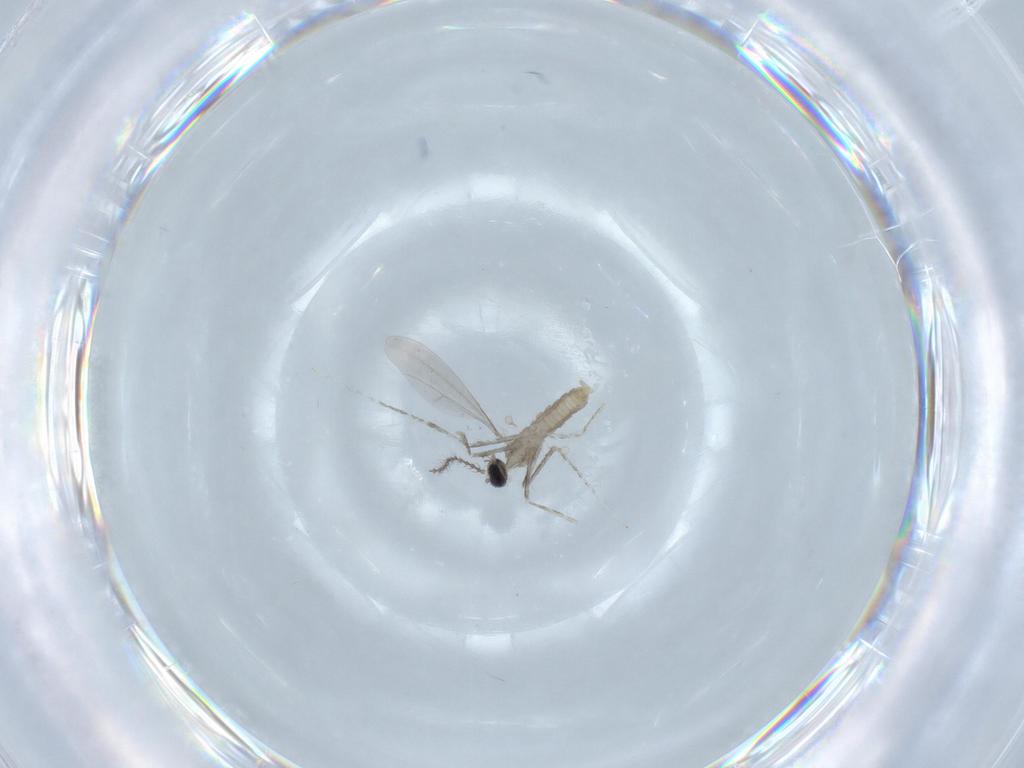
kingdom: Animalia
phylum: Arthropoda
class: Insecta
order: Diptera
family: Cecidomyiidae
